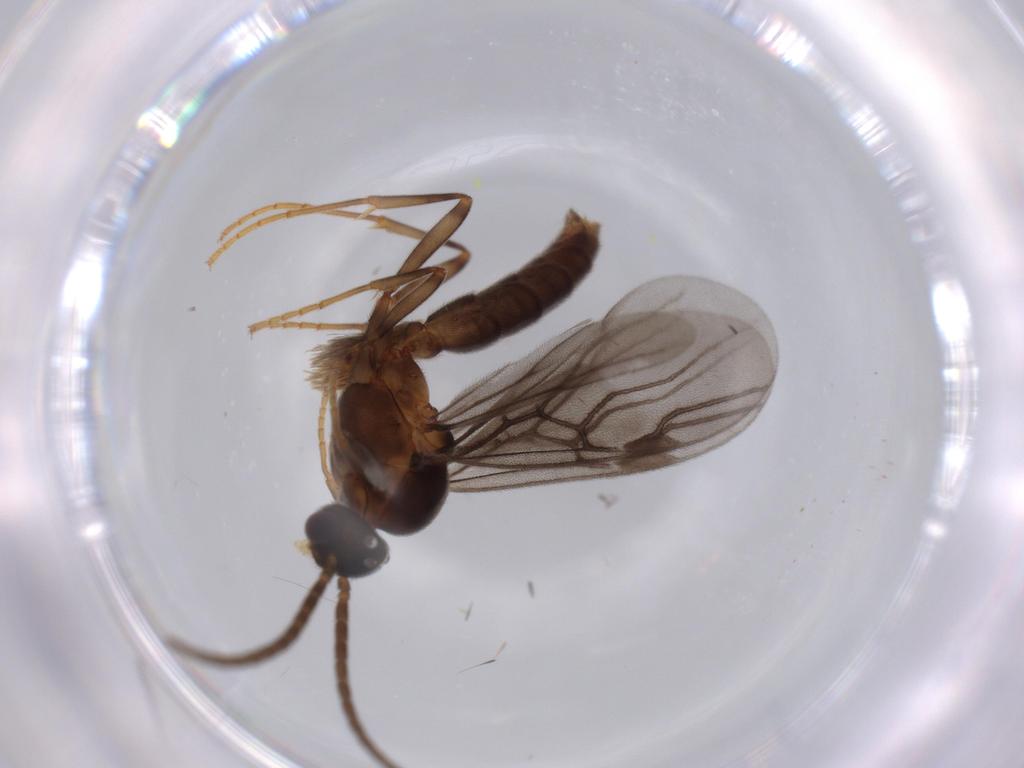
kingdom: Animalia
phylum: Arthropoda
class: Insecta
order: Hymenoptera
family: Formicidae
